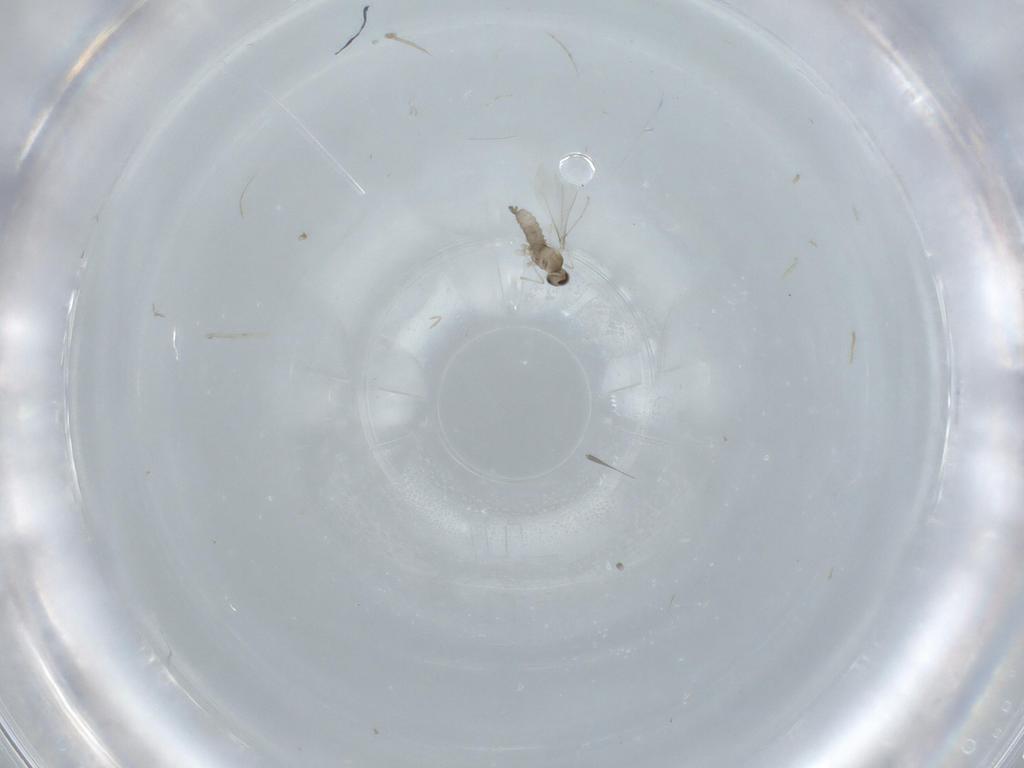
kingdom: Animalia
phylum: Arthropoda
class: Insecta
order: Diptera
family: Cecidomyiidae
